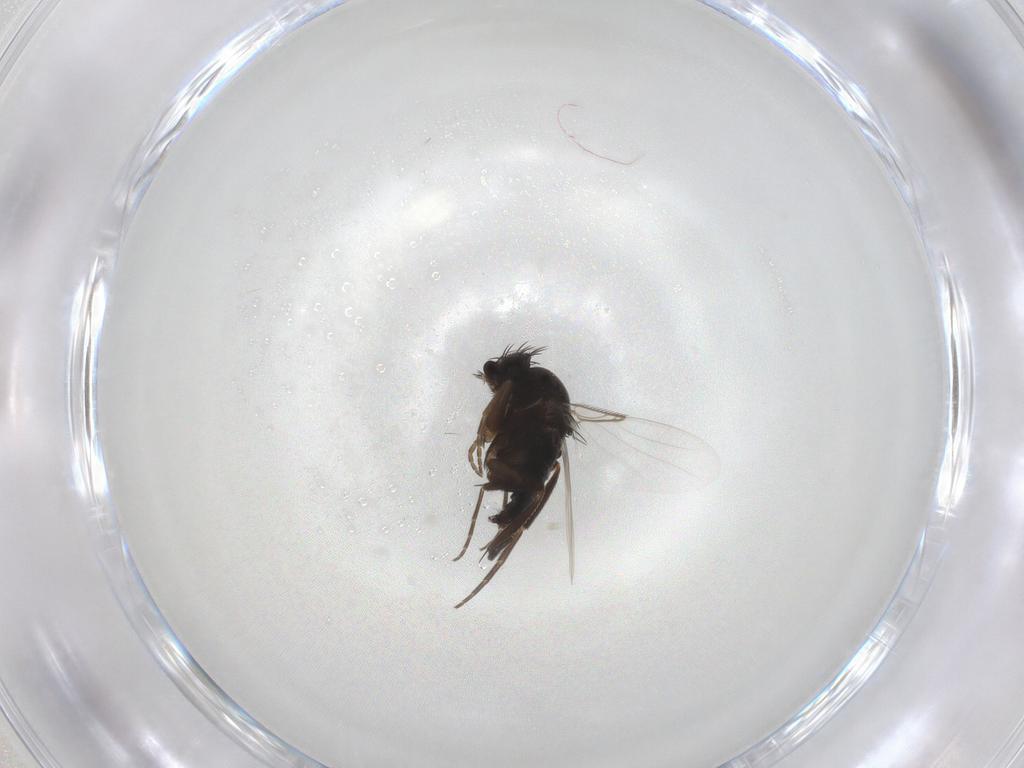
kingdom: Animalia
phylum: Arthropoda
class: Insecta
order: Diptera
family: Phoridae
